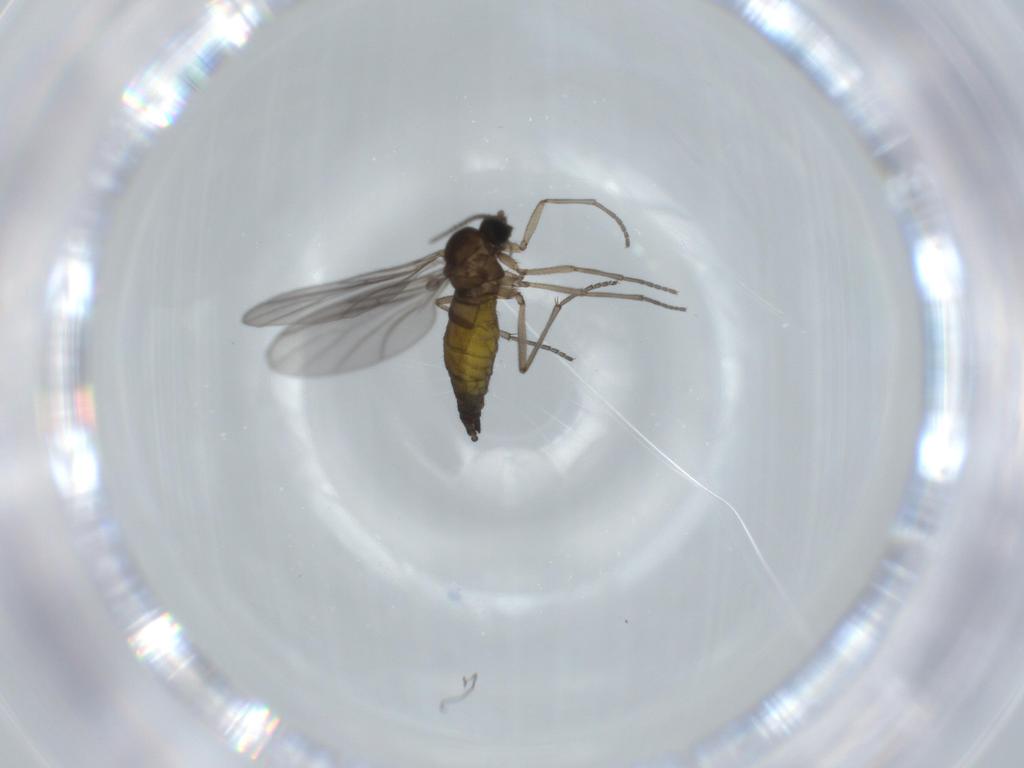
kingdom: Animalia
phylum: Arthropoda
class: Insecta
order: Diptera
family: Sciaridae
